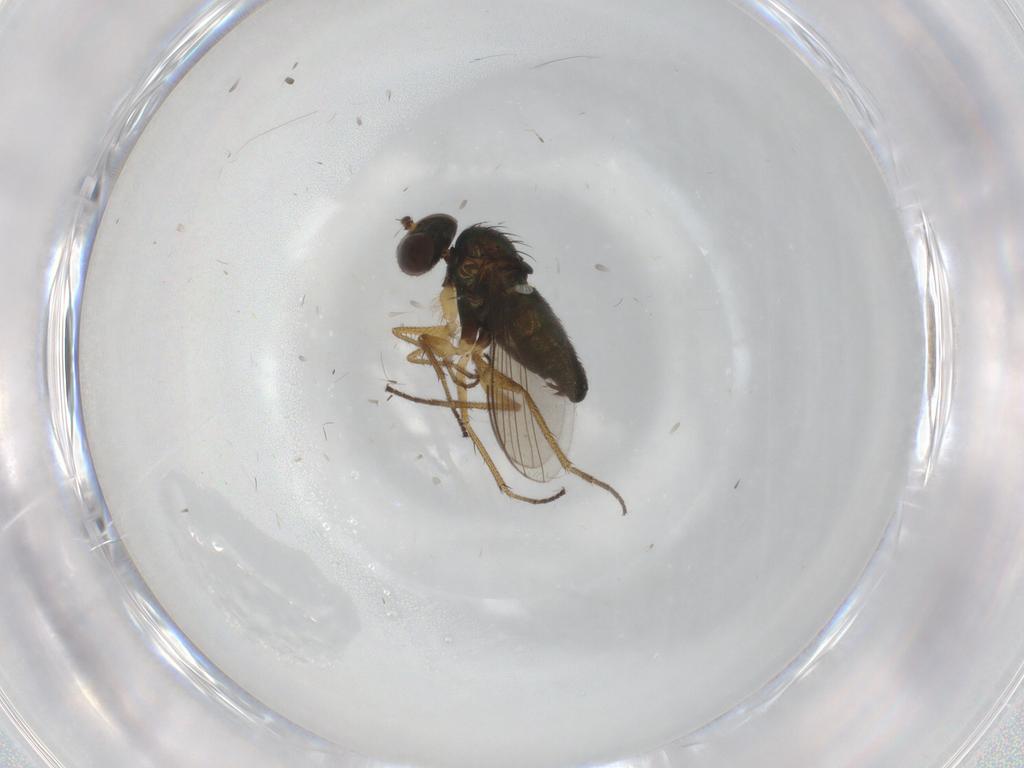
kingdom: Animalia
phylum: Arthropoda
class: Insecta
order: Diptera
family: Dolichopodidae
